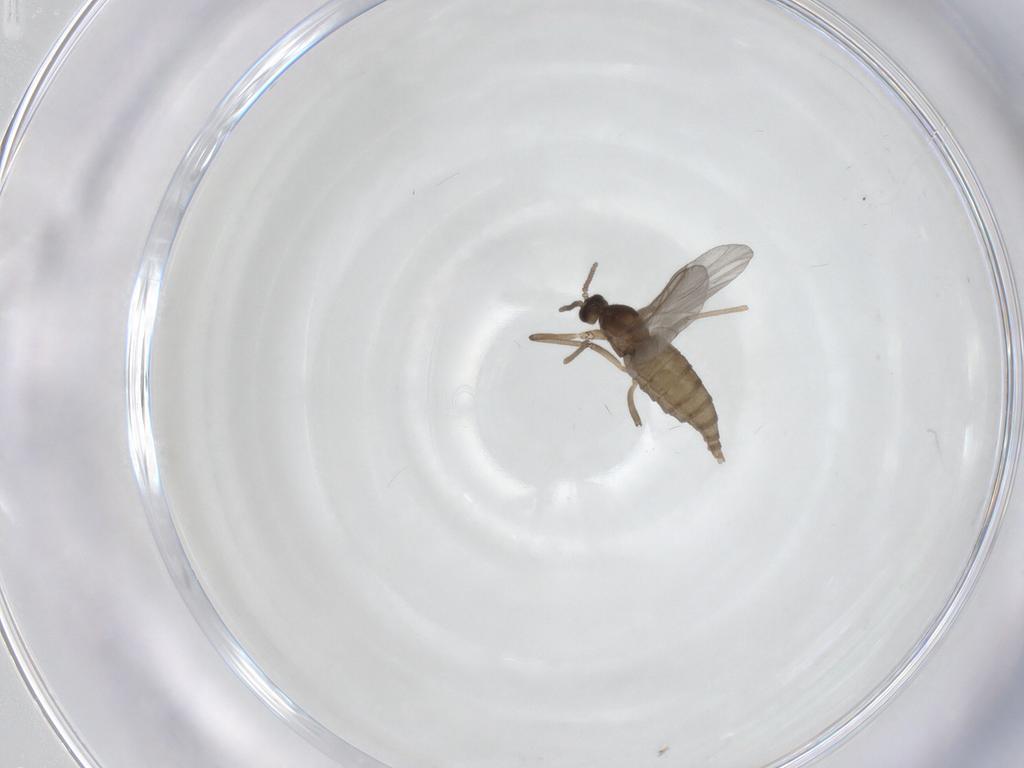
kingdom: Animalia
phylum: Arthropoda
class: Insecta
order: Diptera
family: Cecidomyiidae
